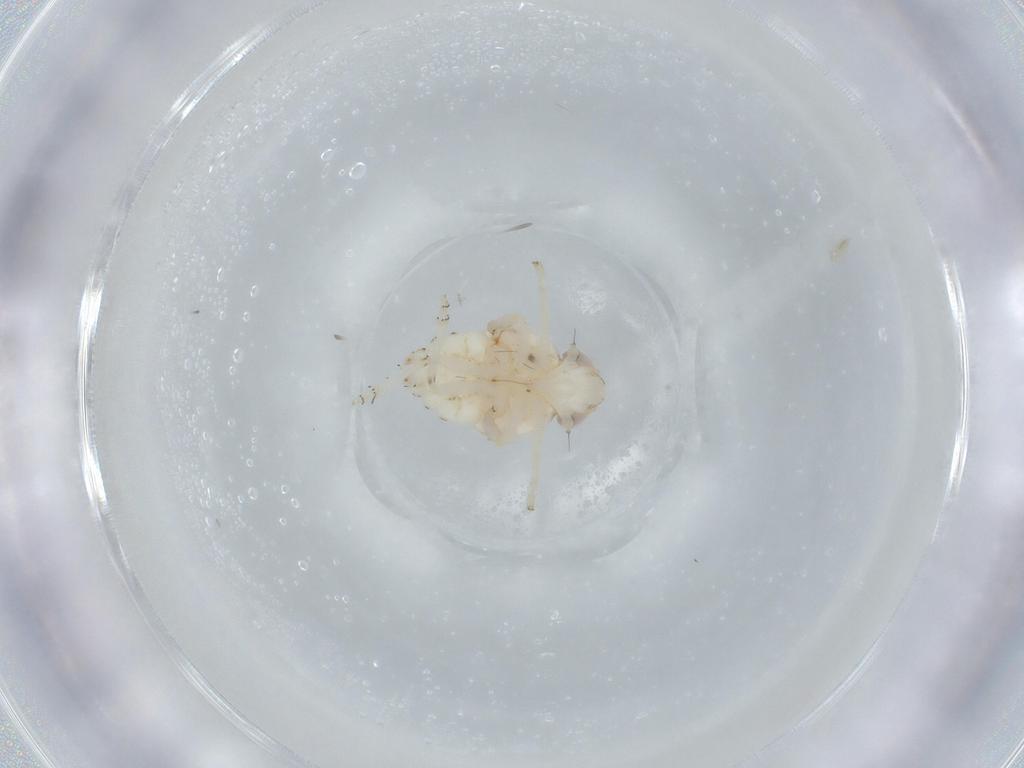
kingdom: Animalia
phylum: Arthropoda
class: Insecta
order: Hemiptera
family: Nogodinidae
